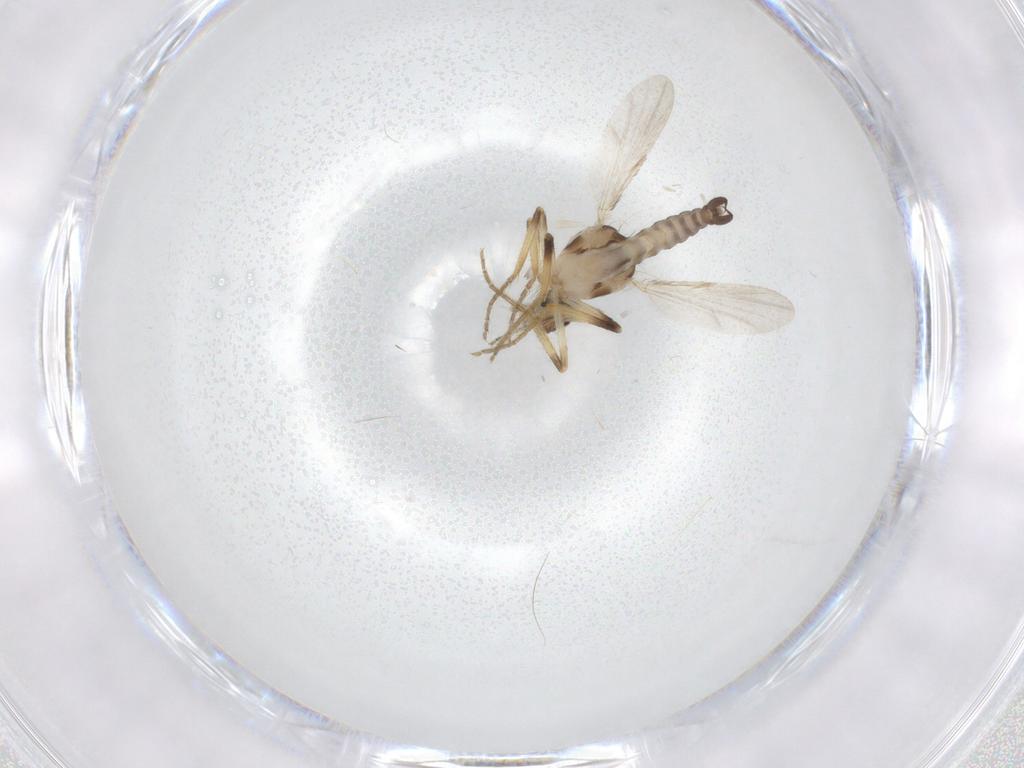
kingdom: Animalia
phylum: Arthropoda
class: Insecta
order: Diptera
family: Ceratopogonidae
